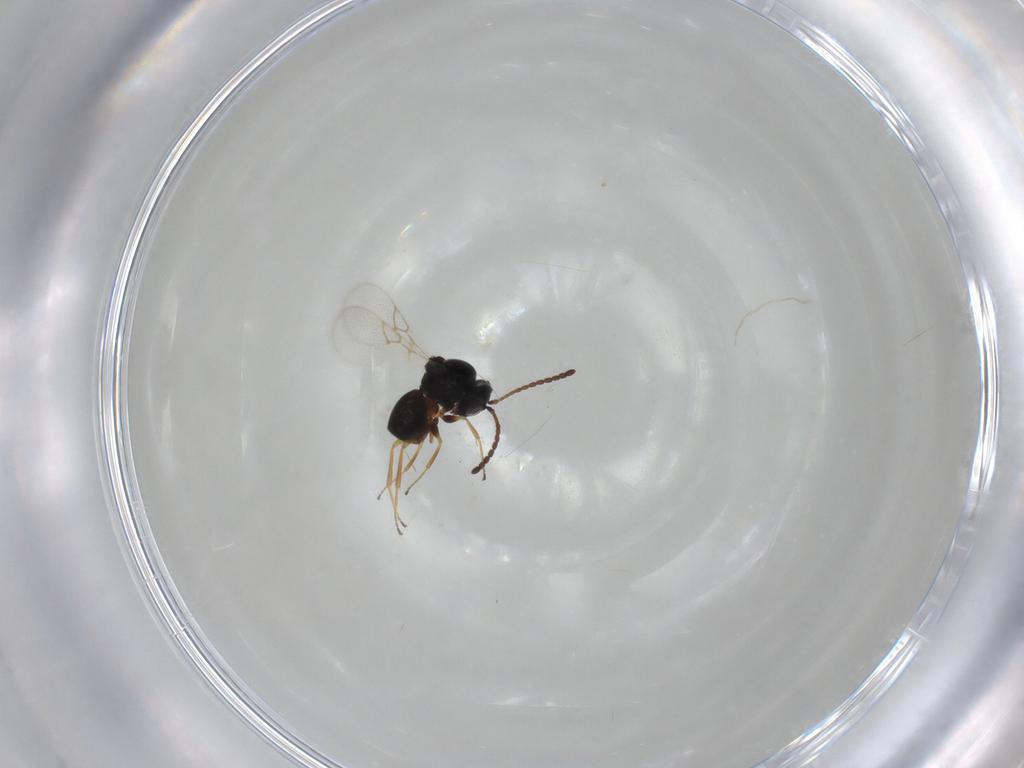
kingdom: Animalia
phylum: Arthropoda
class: Insecta
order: Hymenoptera
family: Figitidae
